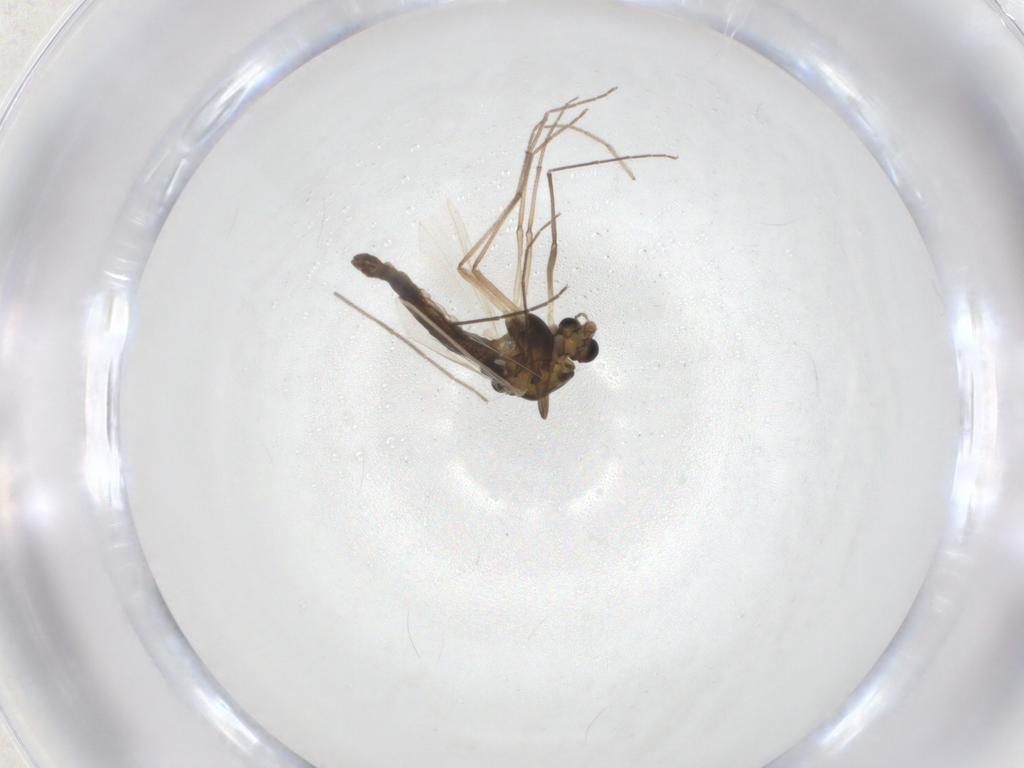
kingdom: Animalia
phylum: Arthropoda
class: Insecta
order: Diptera
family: Chironomidae
